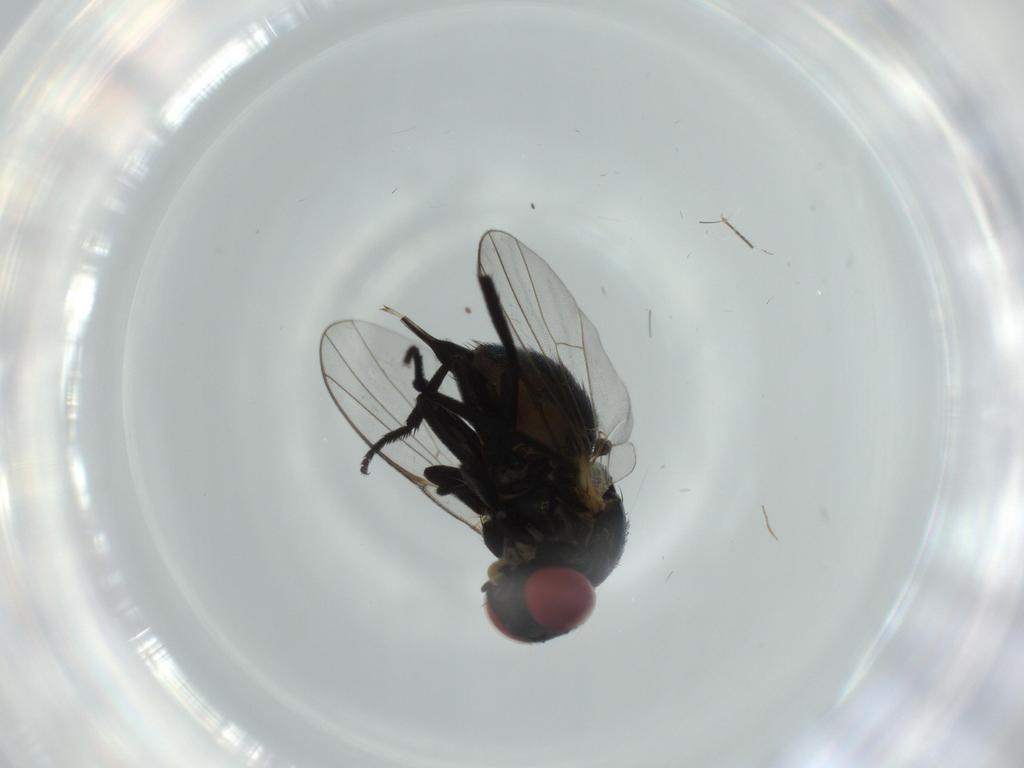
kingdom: Animalia
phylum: Arthropoda
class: Insecta
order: Diptera
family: Agromyzidae
